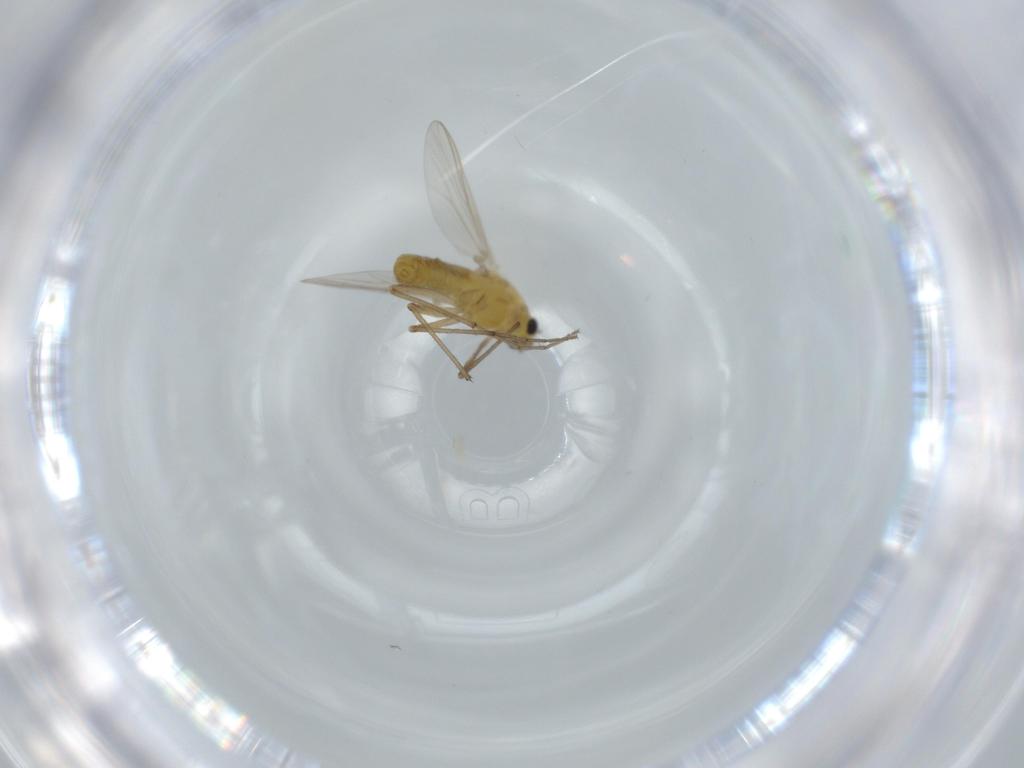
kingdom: Animalia
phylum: Arthropoda
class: Insecta
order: Diptera
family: Chironomidae
